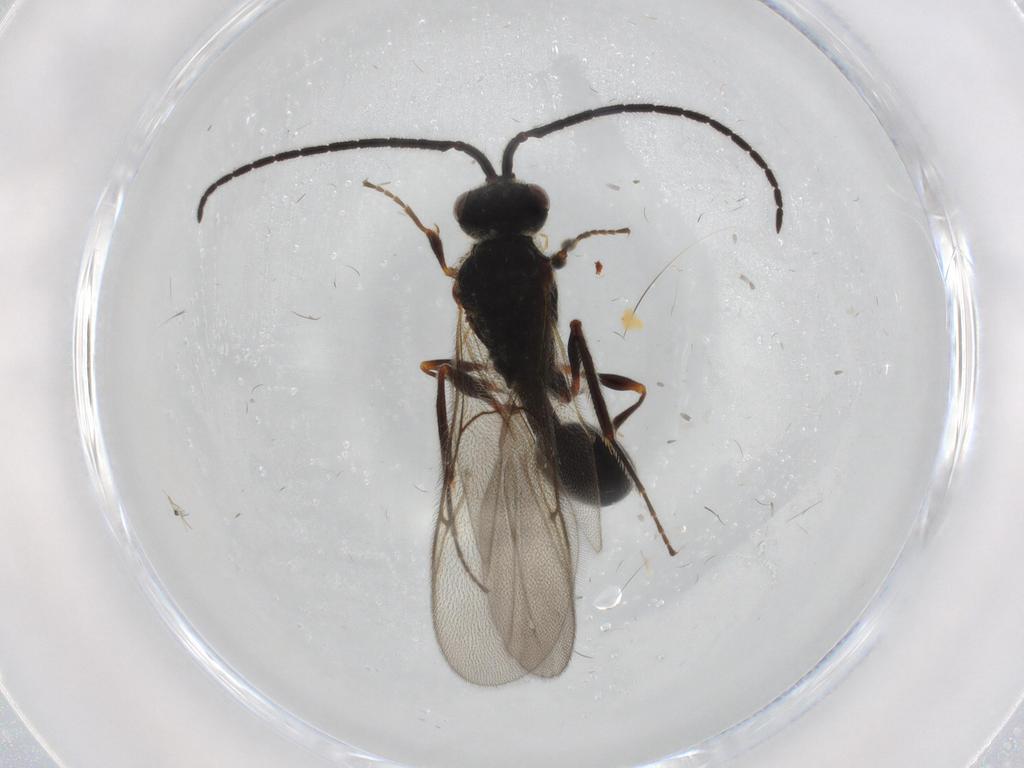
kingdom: Animalia
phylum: Arthropoda
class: Insecta
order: Hymenoptera
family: Diapriidae
